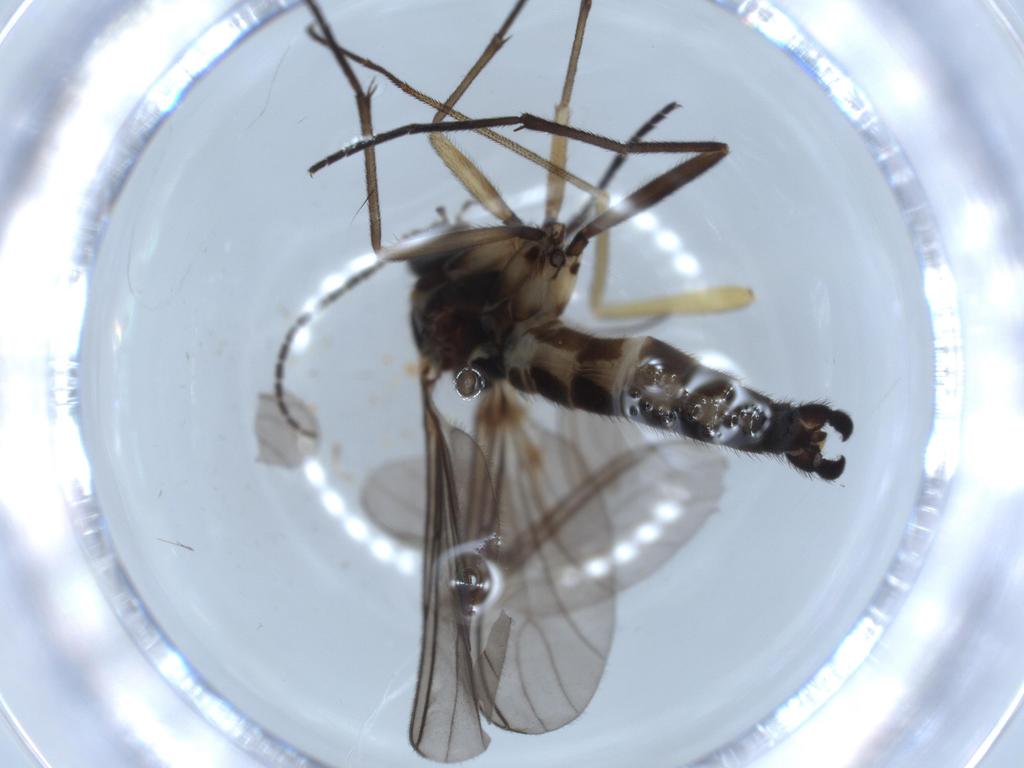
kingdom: Animalia
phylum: Arthropoda
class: Insecta
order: Diptera
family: Sciaridae
